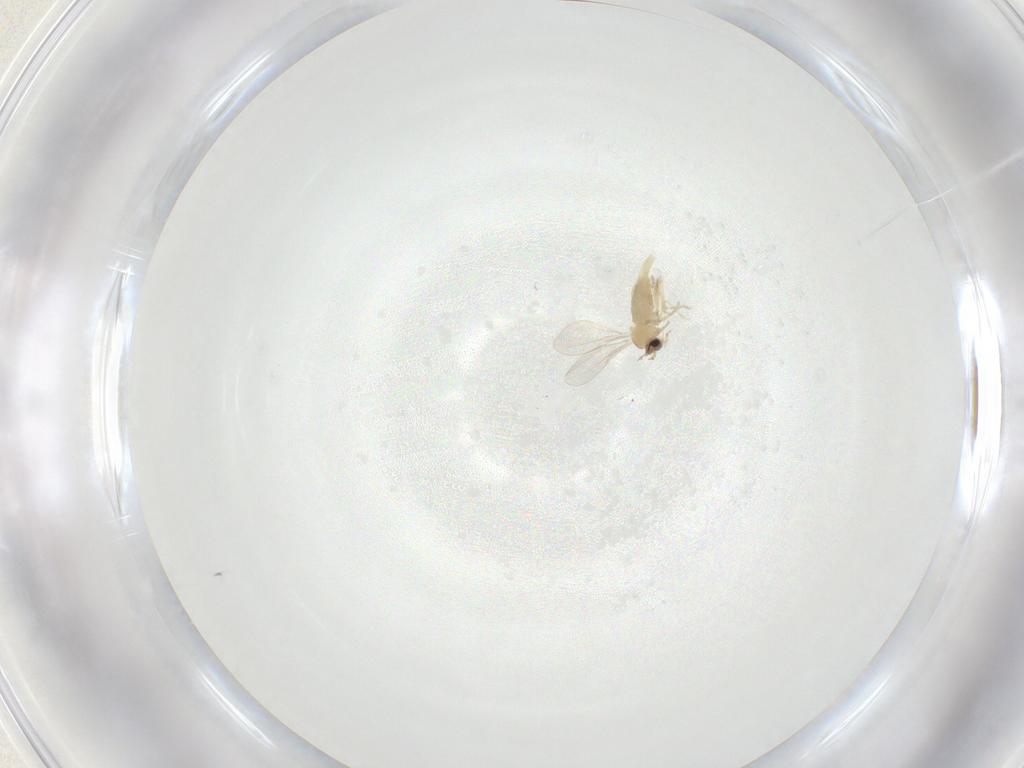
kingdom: Animalia
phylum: Arthropoda
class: Insecta
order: Diptera
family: Cecidomyiidae
